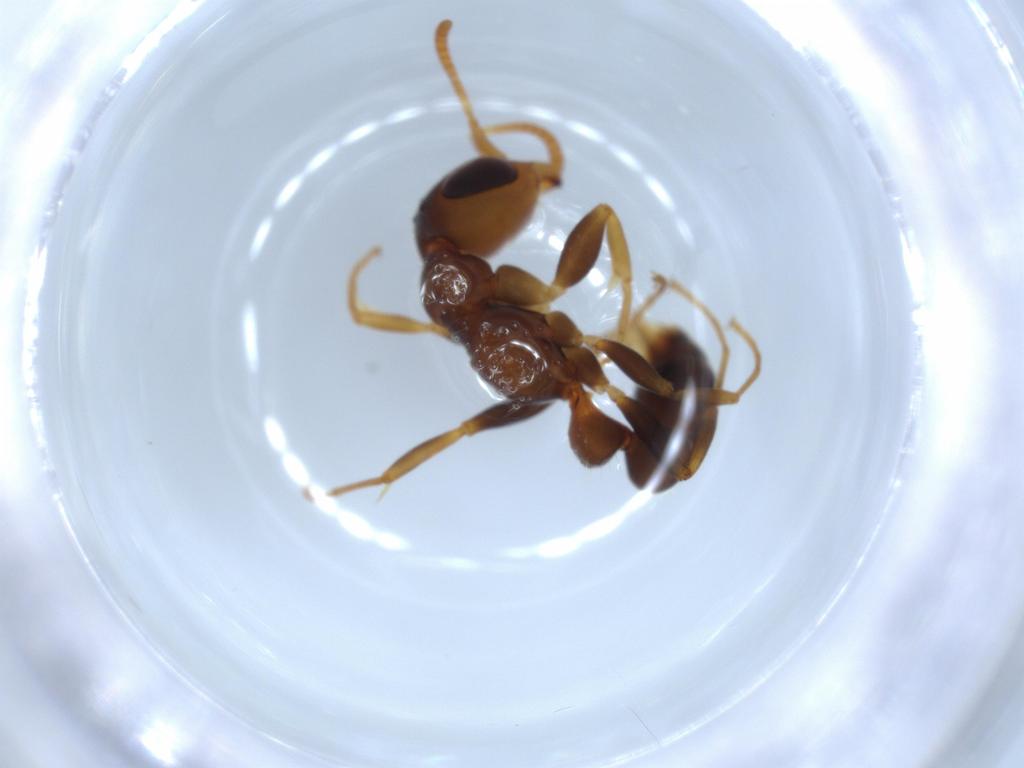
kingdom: Animalia
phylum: Arthropoda
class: Insecta
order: Hymenoptera
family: Formicidae
